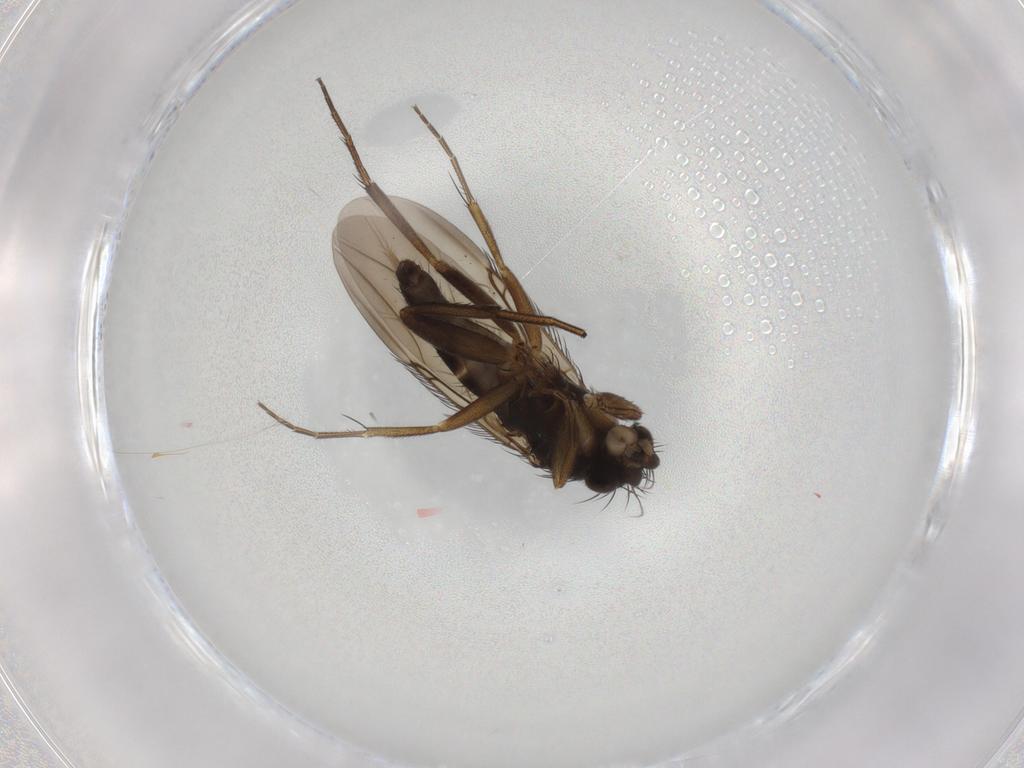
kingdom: Animalia
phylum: Arthropoda
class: Insecta
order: Diptera
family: Phoridae
